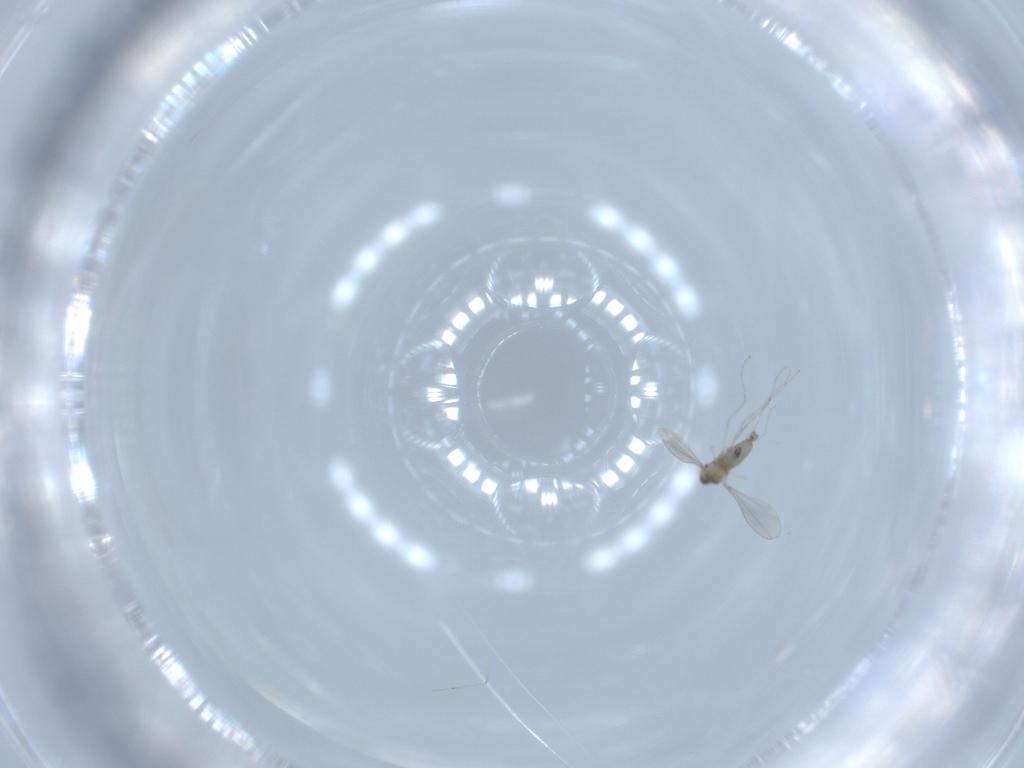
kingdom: Animalia
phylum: Arthropoda
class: Insecta
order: Diptera
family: Cecidomyiidae
